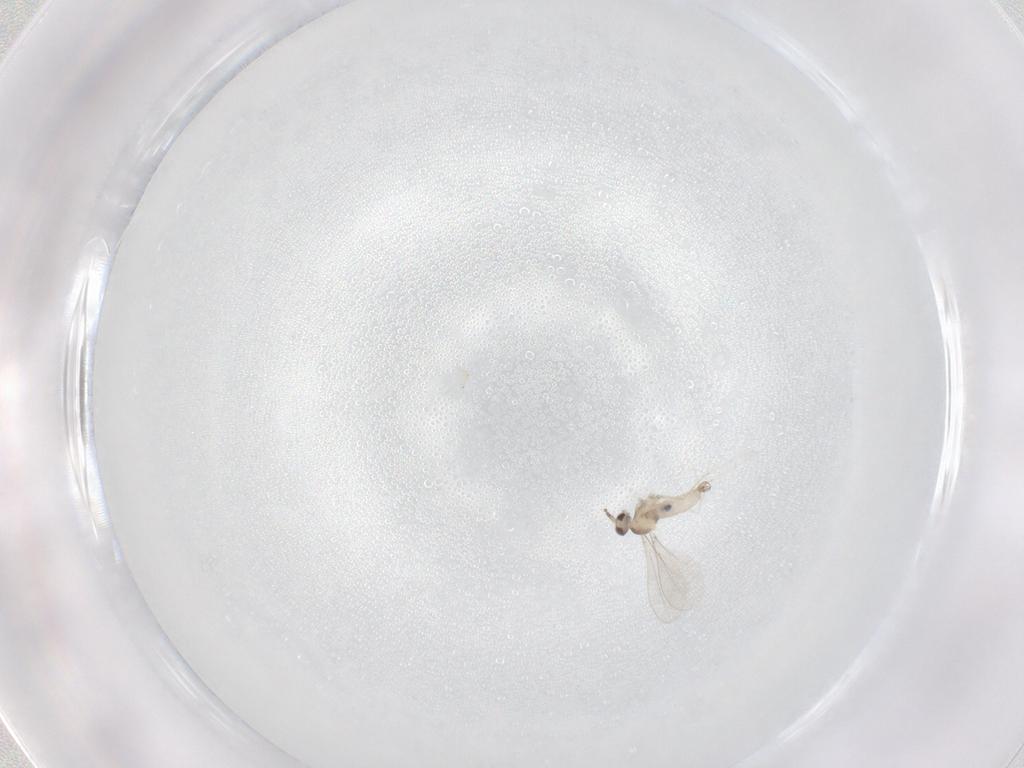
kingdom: Animalia
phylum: Arthropoda
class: Insecta
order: Diptera
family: Cecidomyiidae
